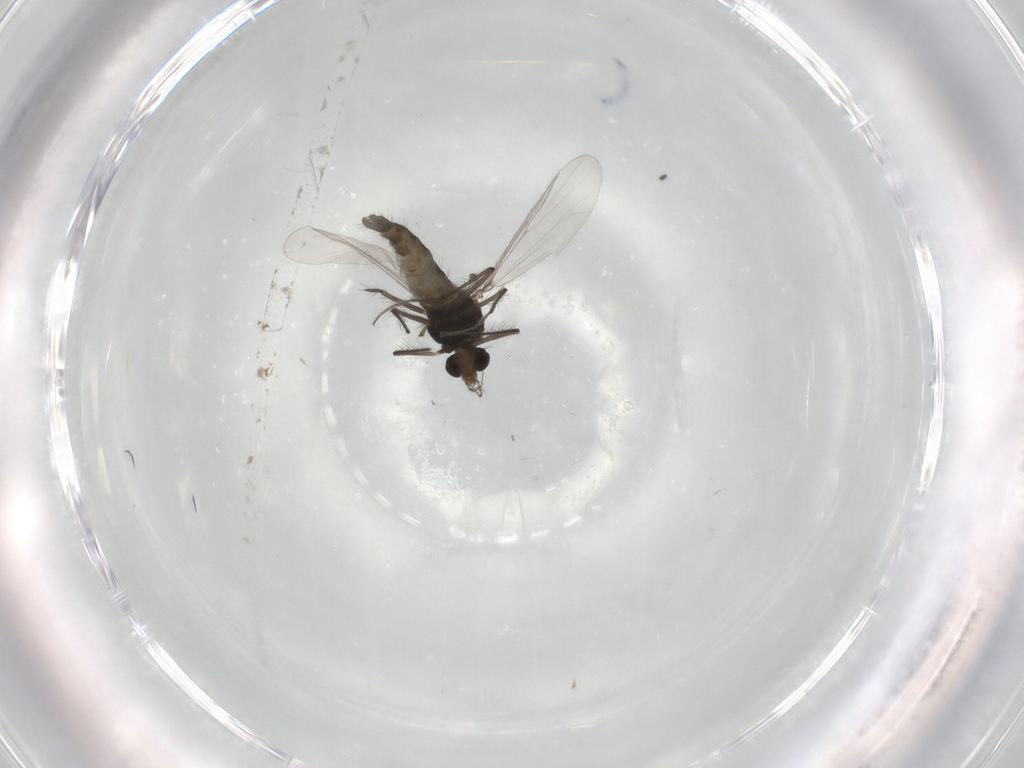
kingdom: Animalia
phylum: Arthropoda
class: Insecta
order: Diptera
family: Chironomidae
